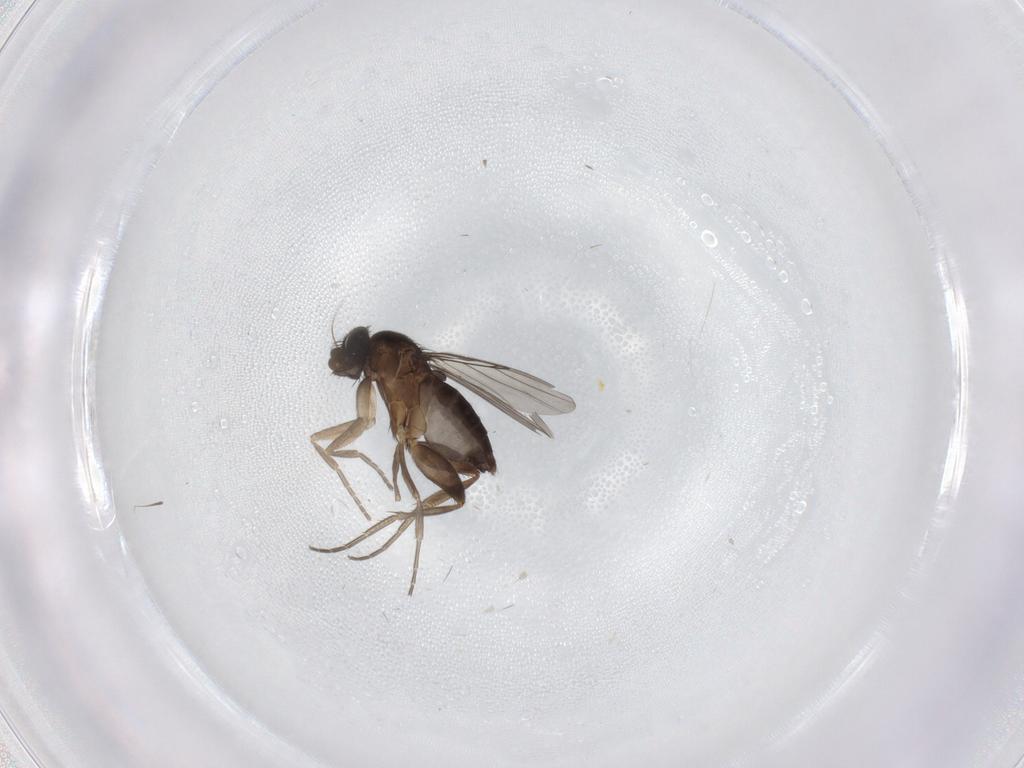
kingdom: Animalia
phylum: Arthropoda
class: Insecta
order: Diptera
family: Phoridae
